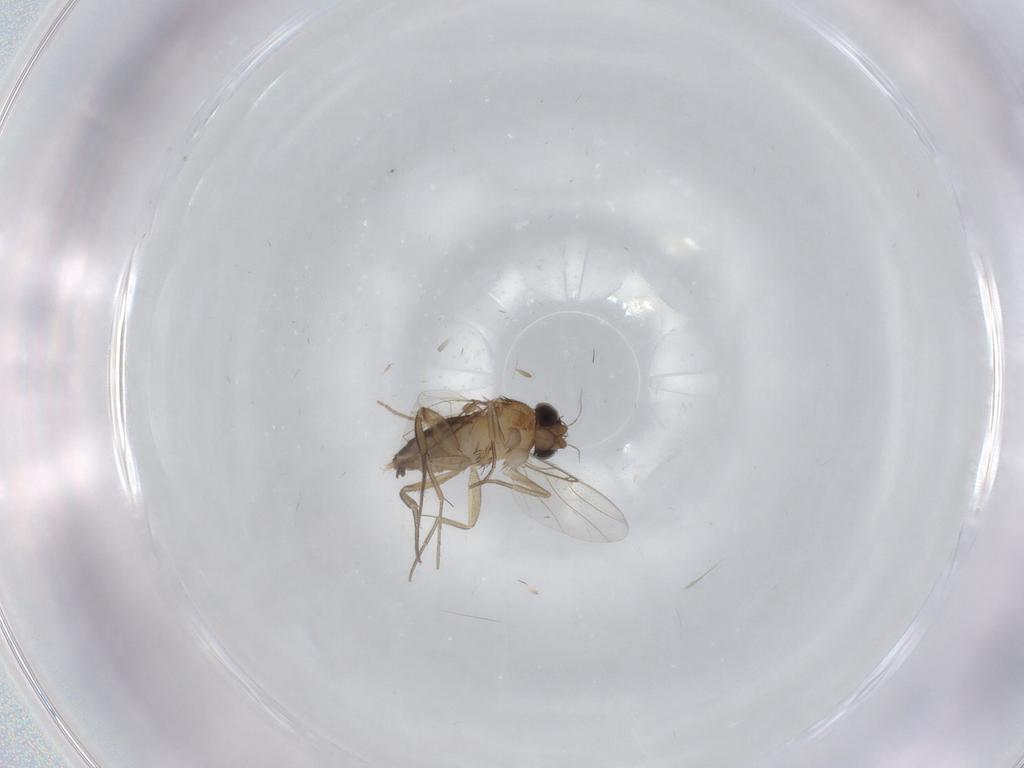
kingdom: Animalia
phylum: Arthropoda
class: Insecta
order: Diptera
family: Phoridae
